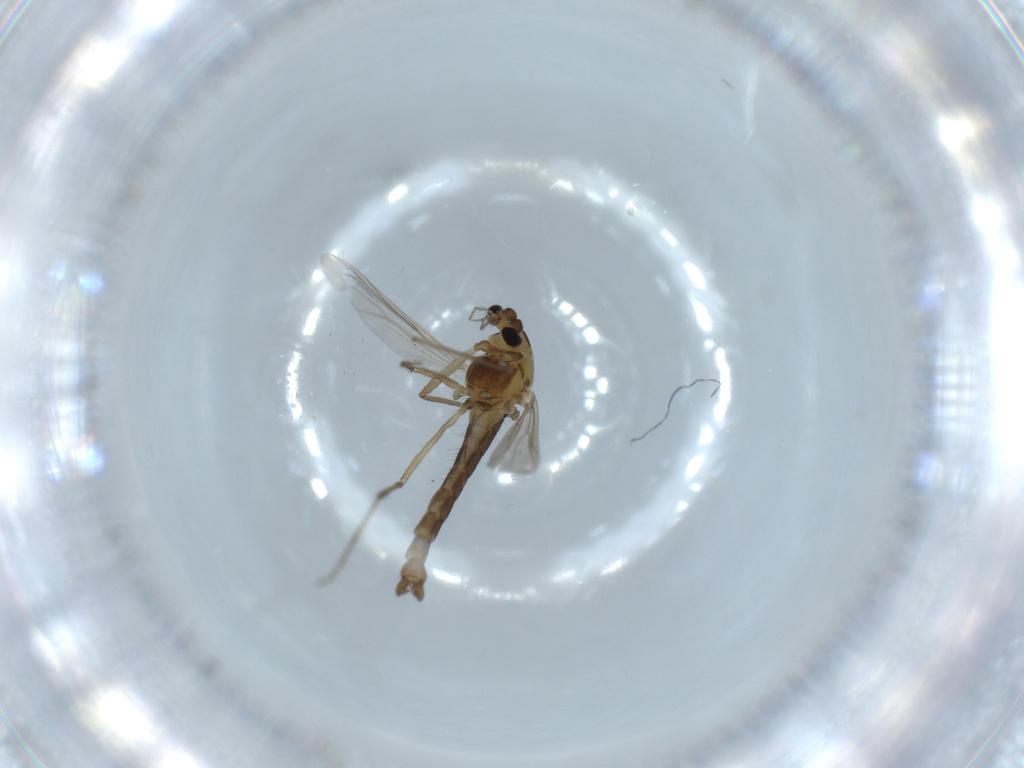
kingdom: Animalia
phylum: Arthropoda
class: Insecta
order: Diptera
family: Chironomidae
